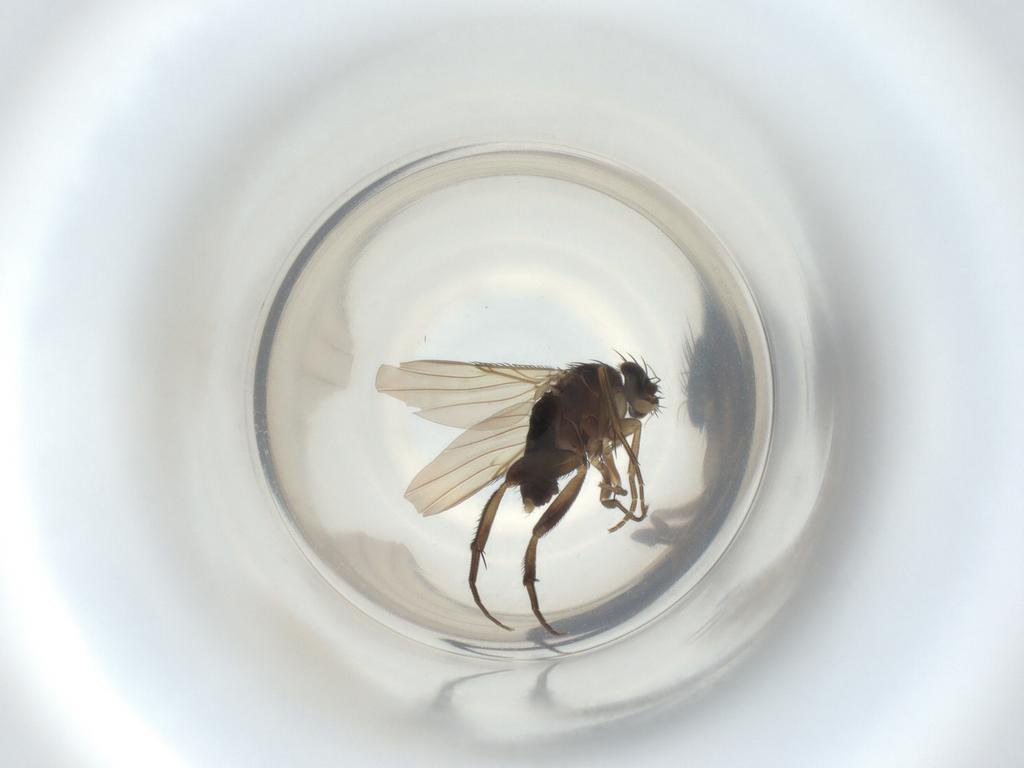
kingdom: Animalia
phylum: Arthropoda
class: Insecta
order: Diptera
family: Phoridae
